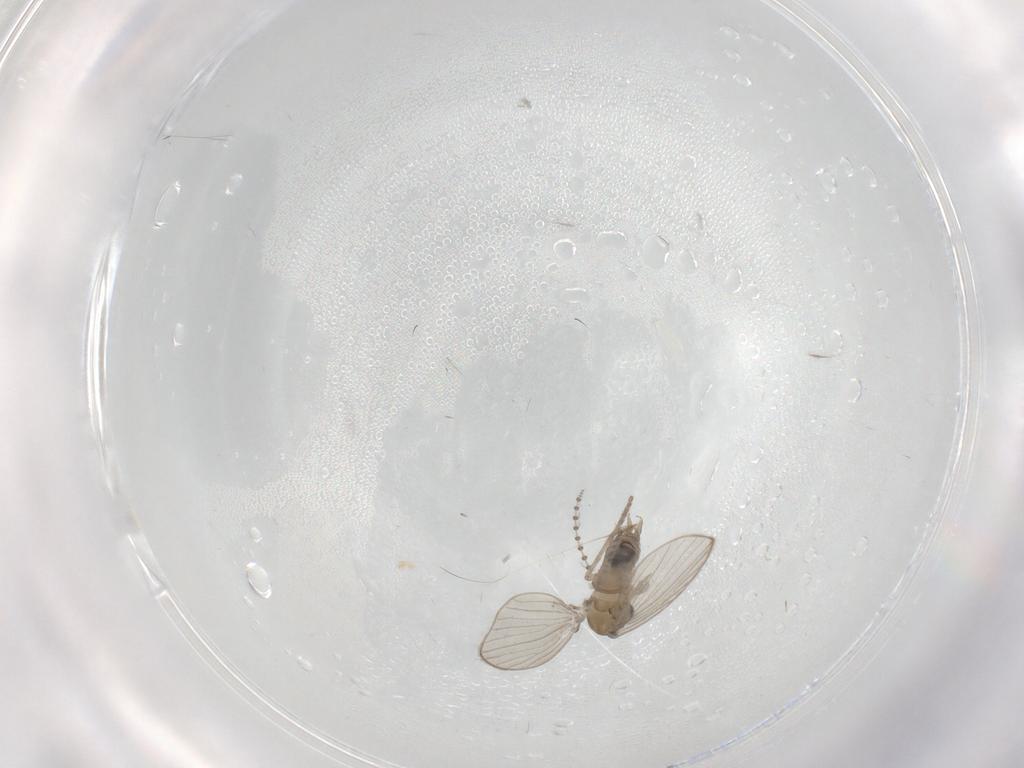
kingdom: Animalia
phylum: Arthropoda
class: Insecta
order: Diptera
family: Psychodidae
